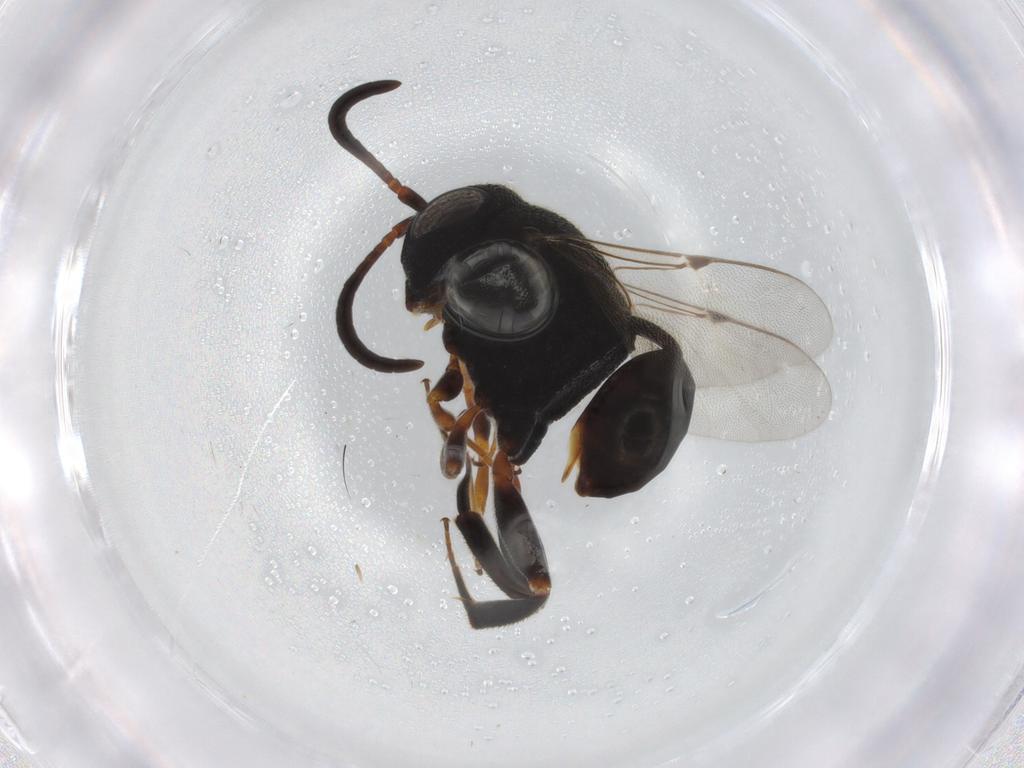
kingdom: Animalia
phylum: Arthropoda
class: Insecta
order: Hymenoptera
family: Platygastridae
